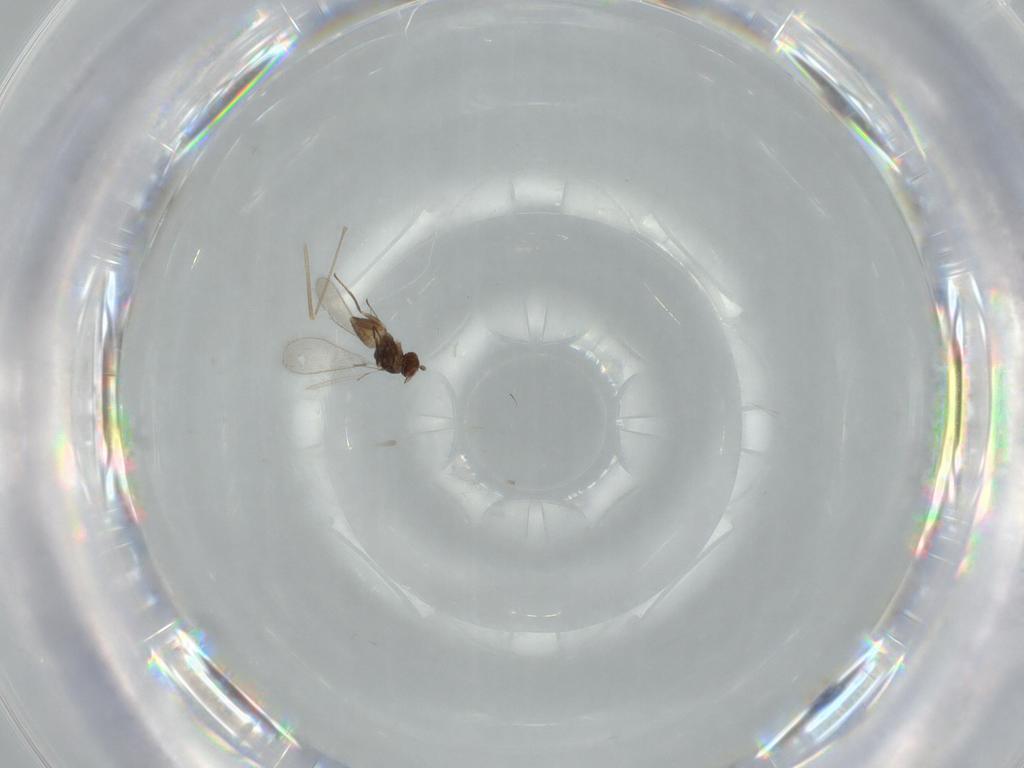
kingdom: Animalia
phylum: Arthropoda
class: Insecta
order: Hymenoptera
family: Mymaridae
